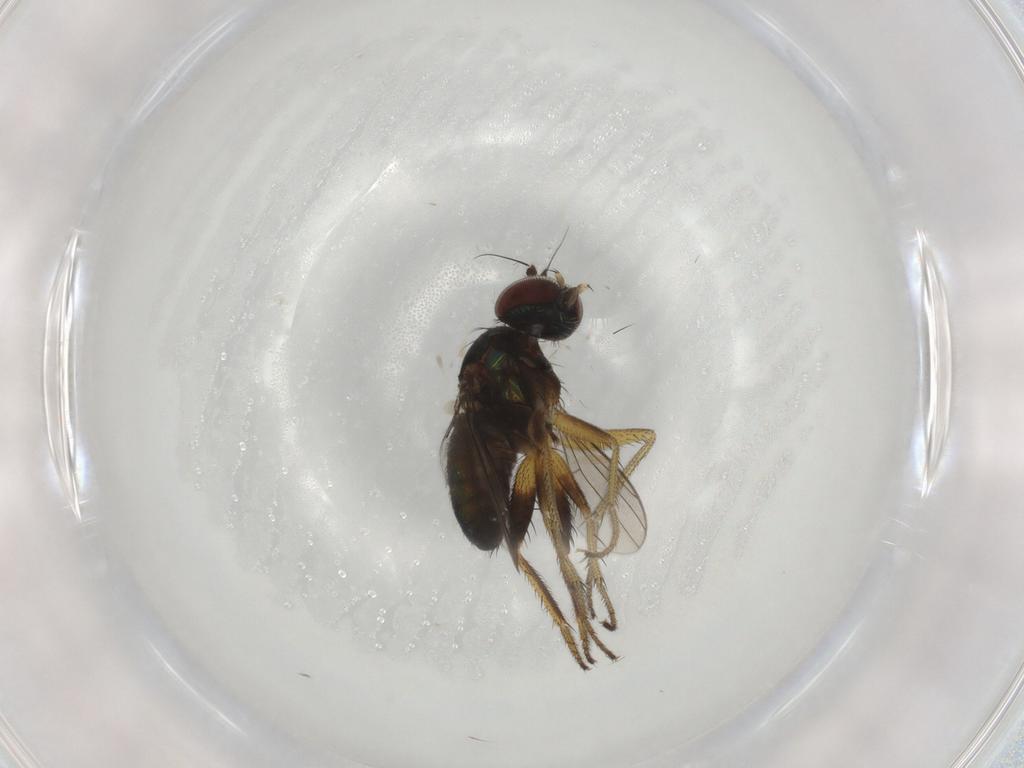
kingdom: Animalia
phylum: Arthropoda
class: Insecta
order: Diptera
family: Dolichopodidae
